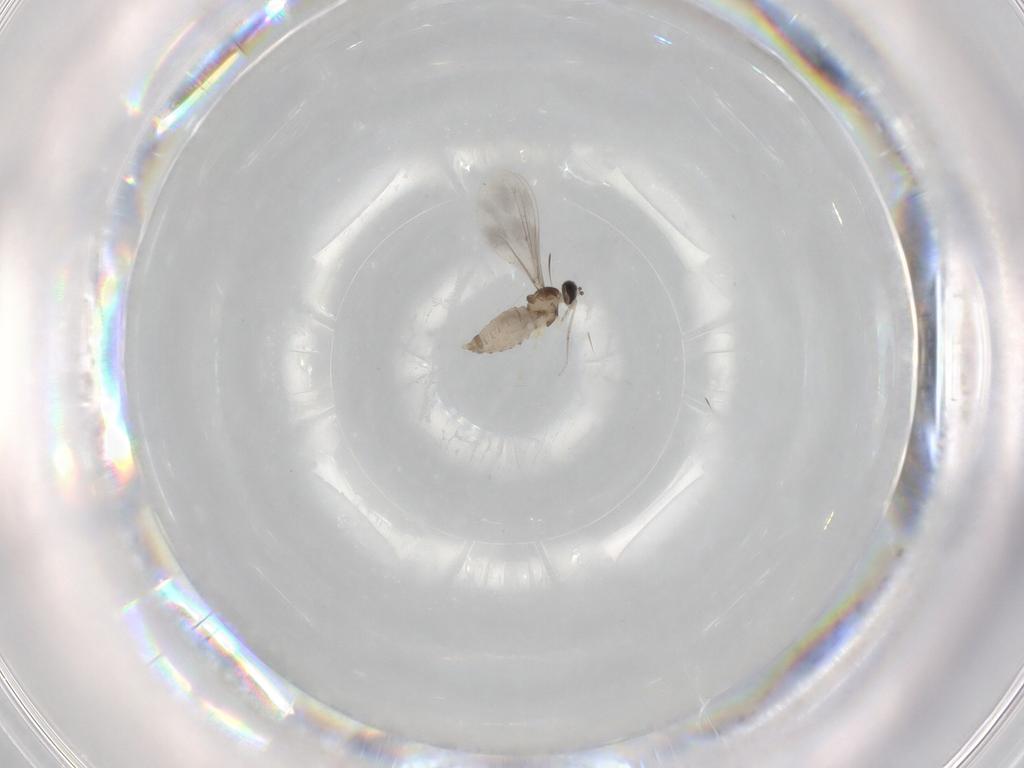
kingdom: Animalia
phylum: Arthropoda
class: Insecta
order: Diptera
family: Cecidomyiidae
